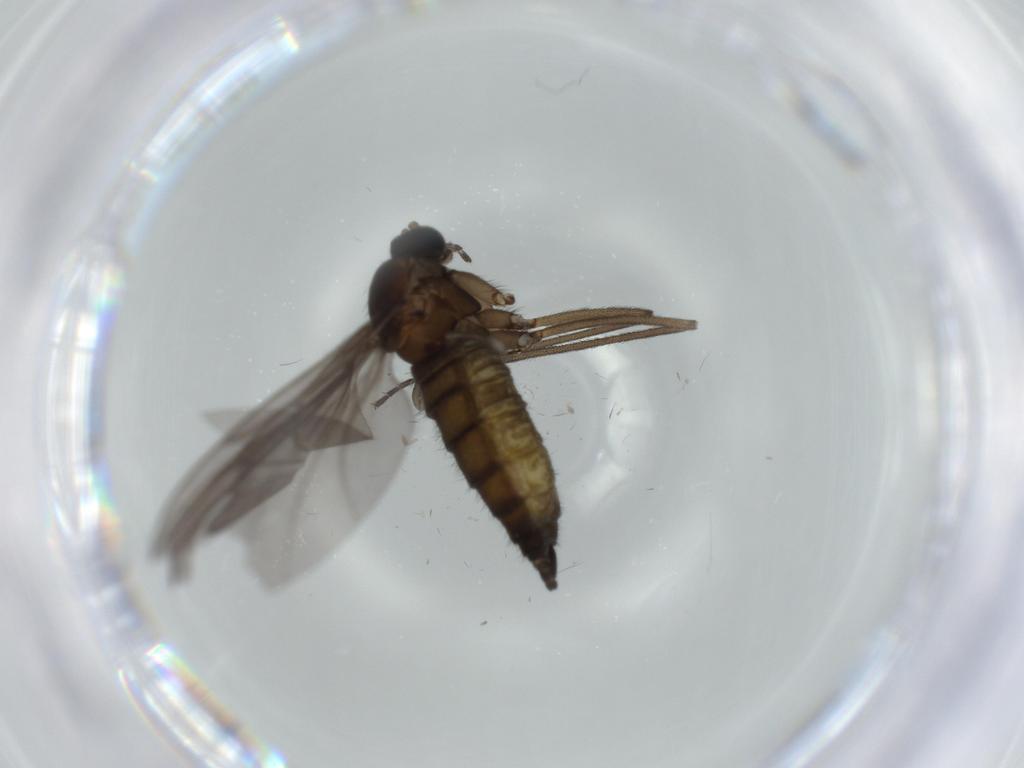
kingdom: Animalia
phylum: Arthropoda
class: Insecta
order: Diptera
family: Sciaridae
